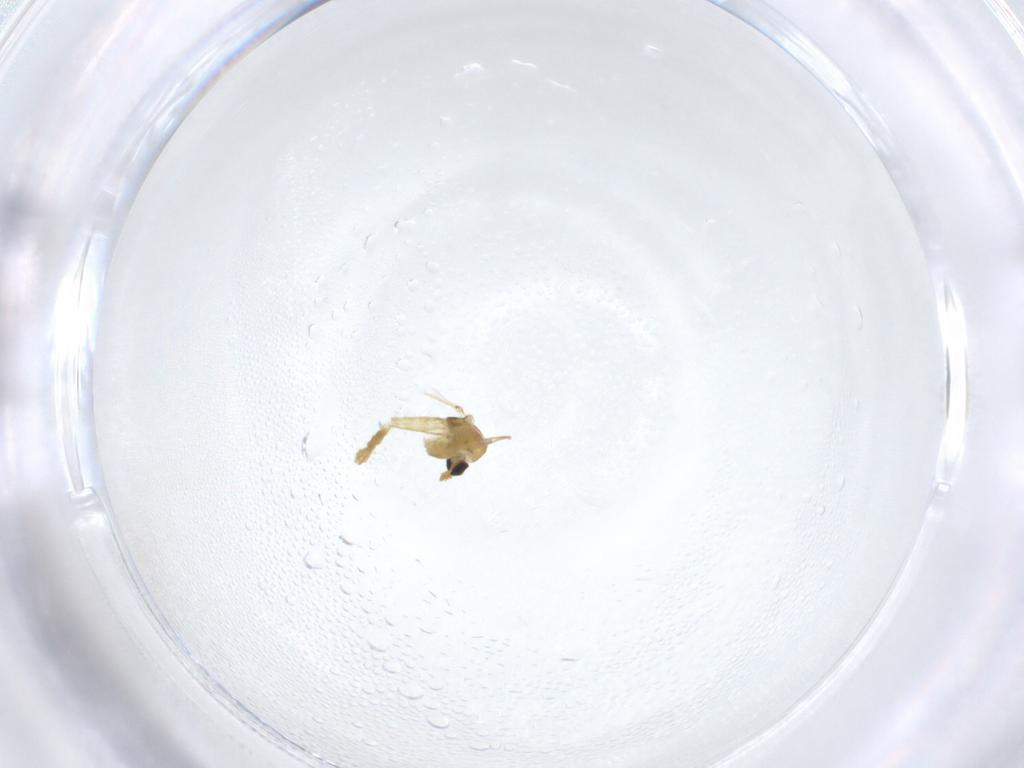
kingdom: Animalia
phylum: Arthropoda
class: Insecta
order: Diptera
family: Chironomidae
